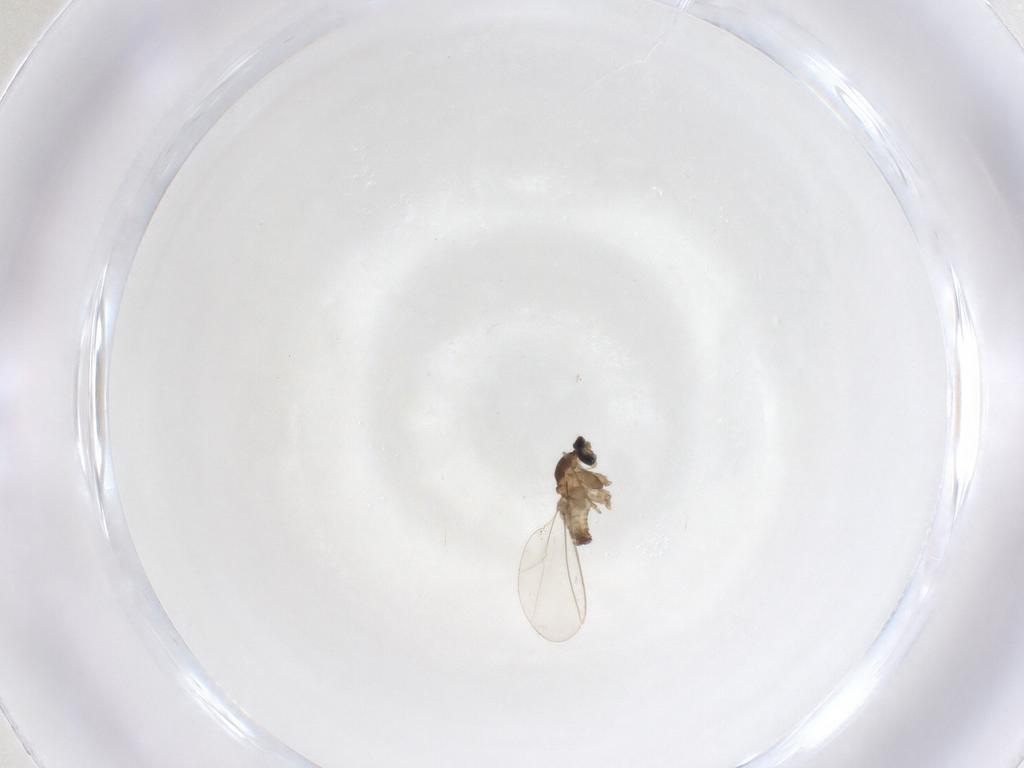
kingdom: Animalia
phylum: Arthropoda
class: Insecta
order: Diptera
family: Cecidomyiidae
